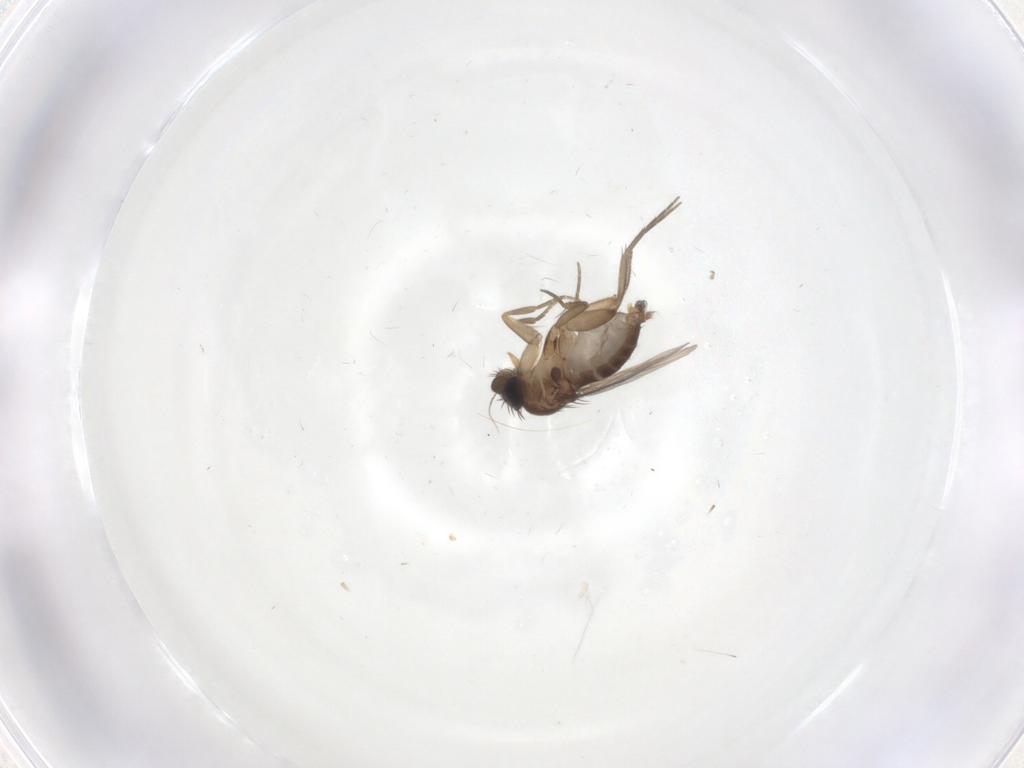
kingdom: Animalia
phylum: Arthropoda
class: Insecta
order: Diptera
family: Phoridae
